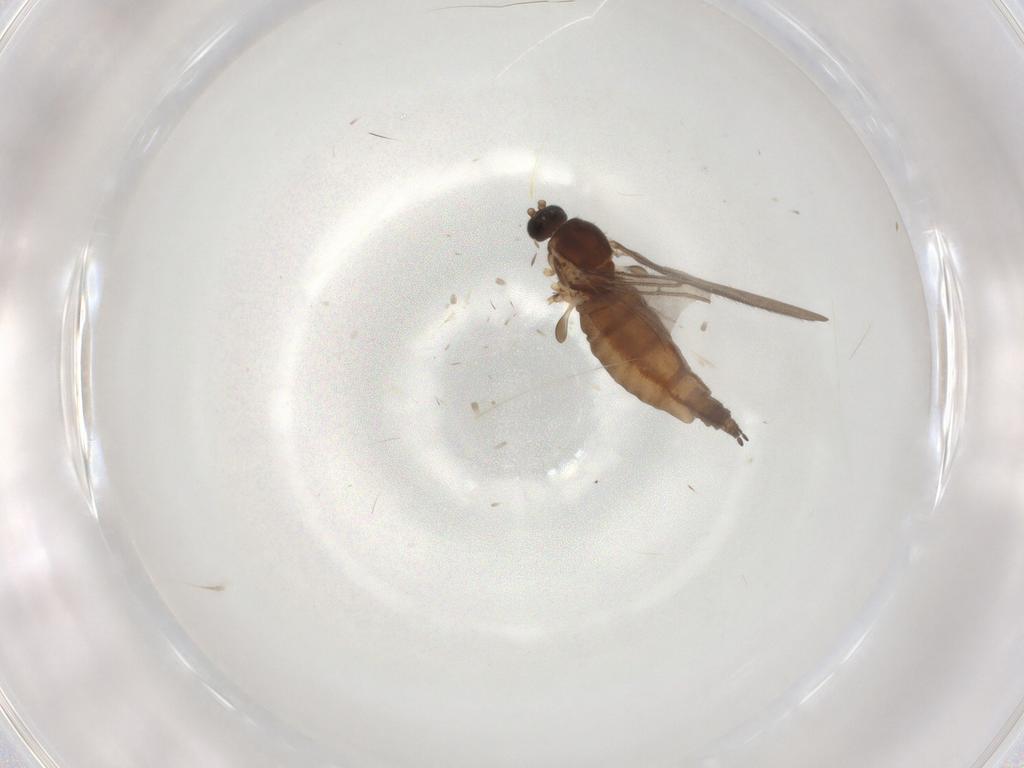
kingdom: Animalia
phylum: Arthropoda
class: Insecta
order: Diptera
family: Sciaridae
